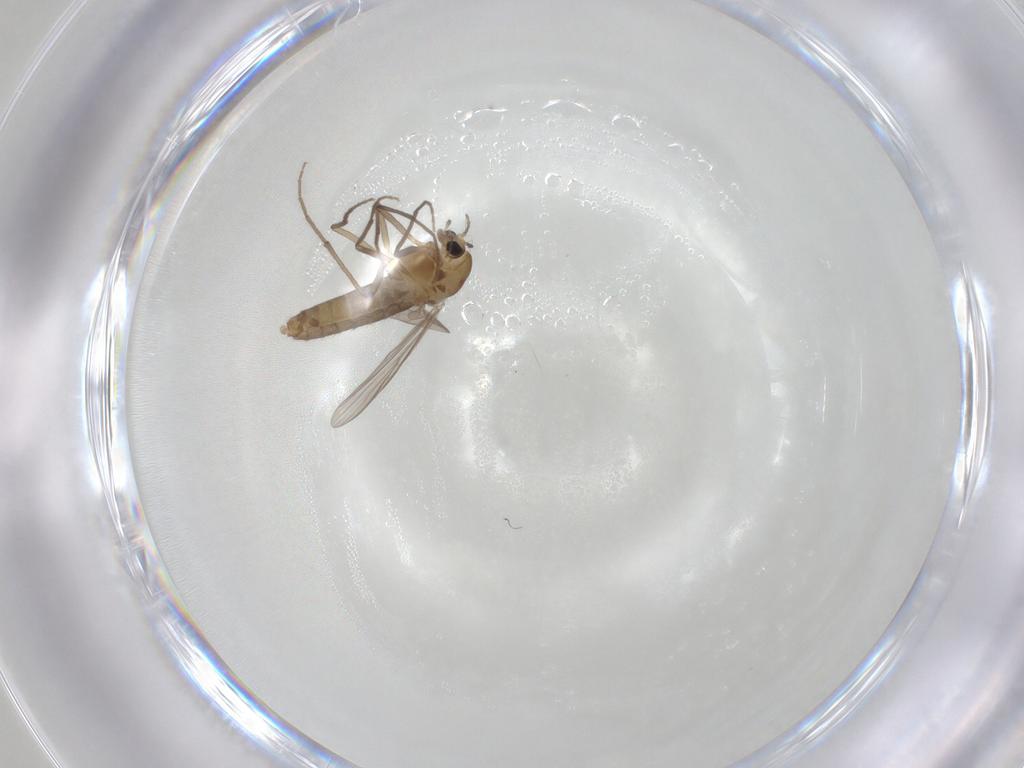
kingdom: Animalia
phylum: Arthropoda
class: Insecta
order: Diptera
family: Chironomidae
